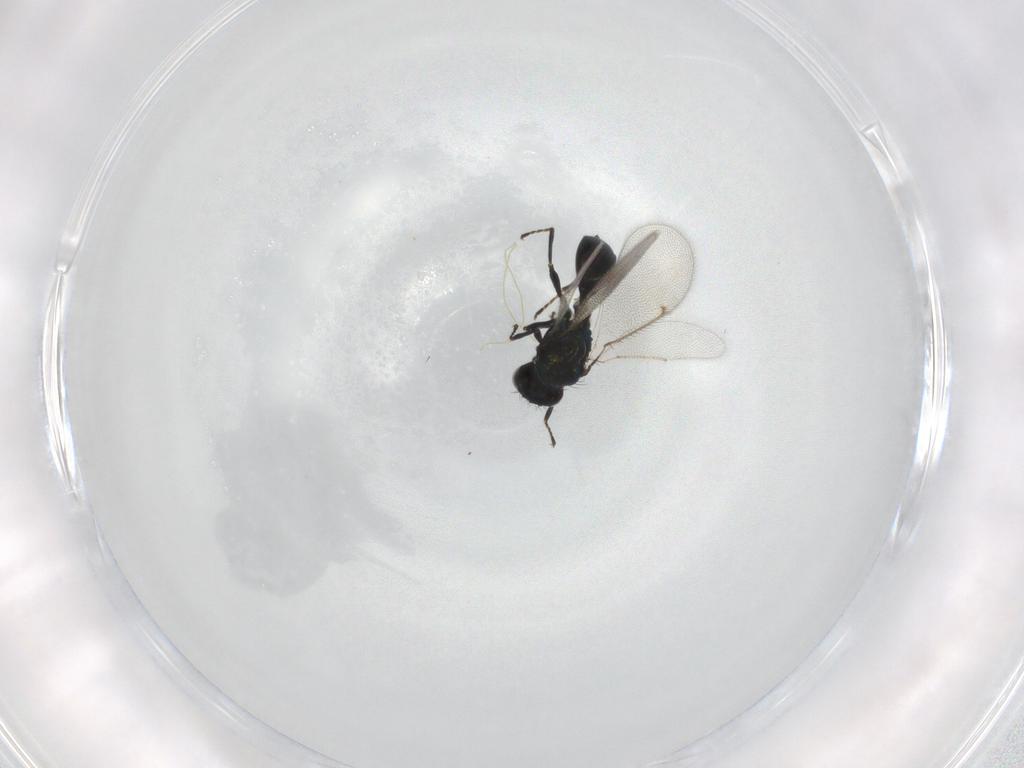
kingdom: Animalia
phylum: Arthropoda
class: Insecta
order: Hymenoptera
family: Eulophidae
